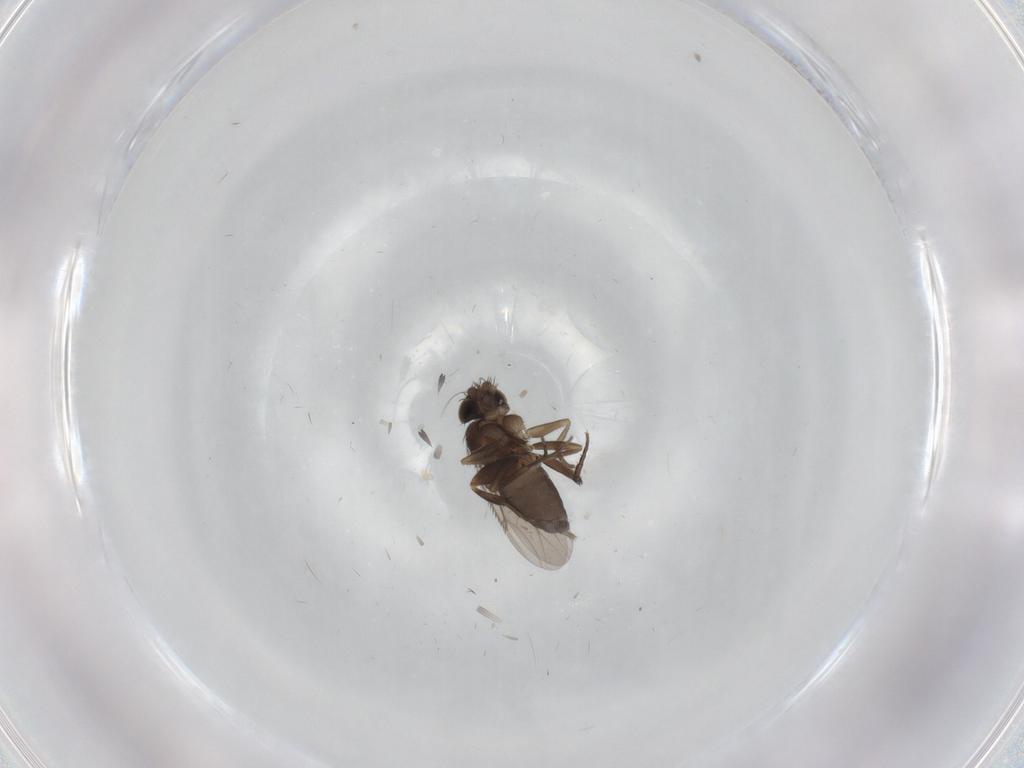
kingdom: Animalia
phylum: Arthropoda
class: Insecta
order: Diptera
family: Phoridae
